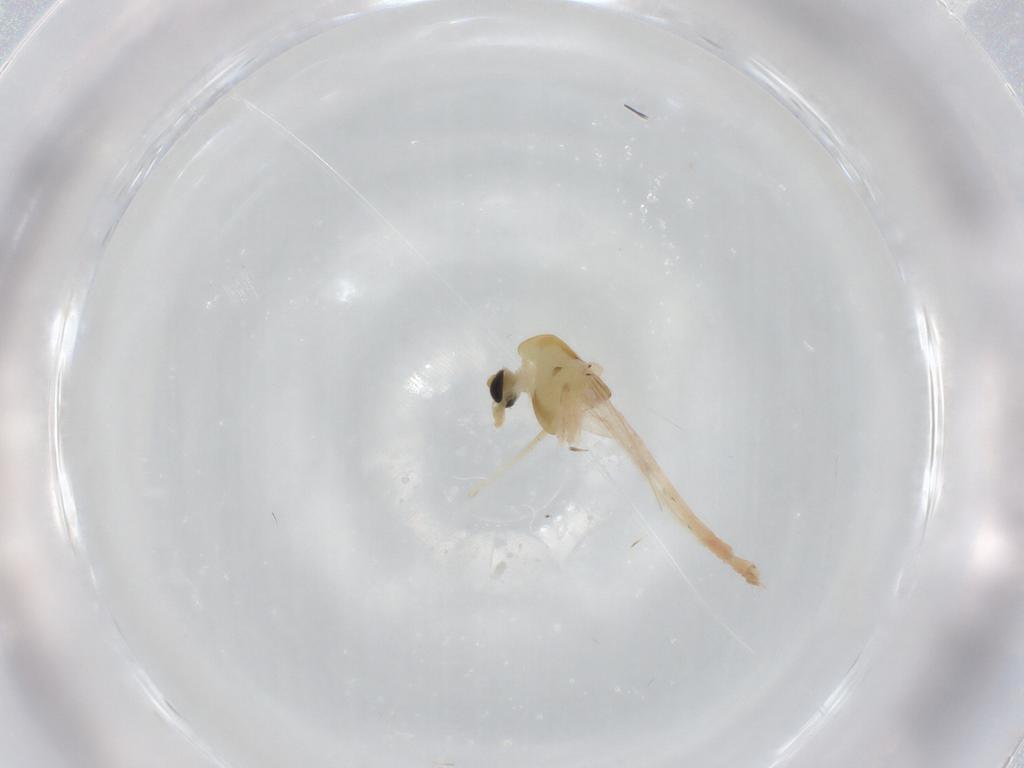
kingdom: Animalia
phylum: Arthropoda
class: Insecta
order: Diptera
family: Chironomidae
